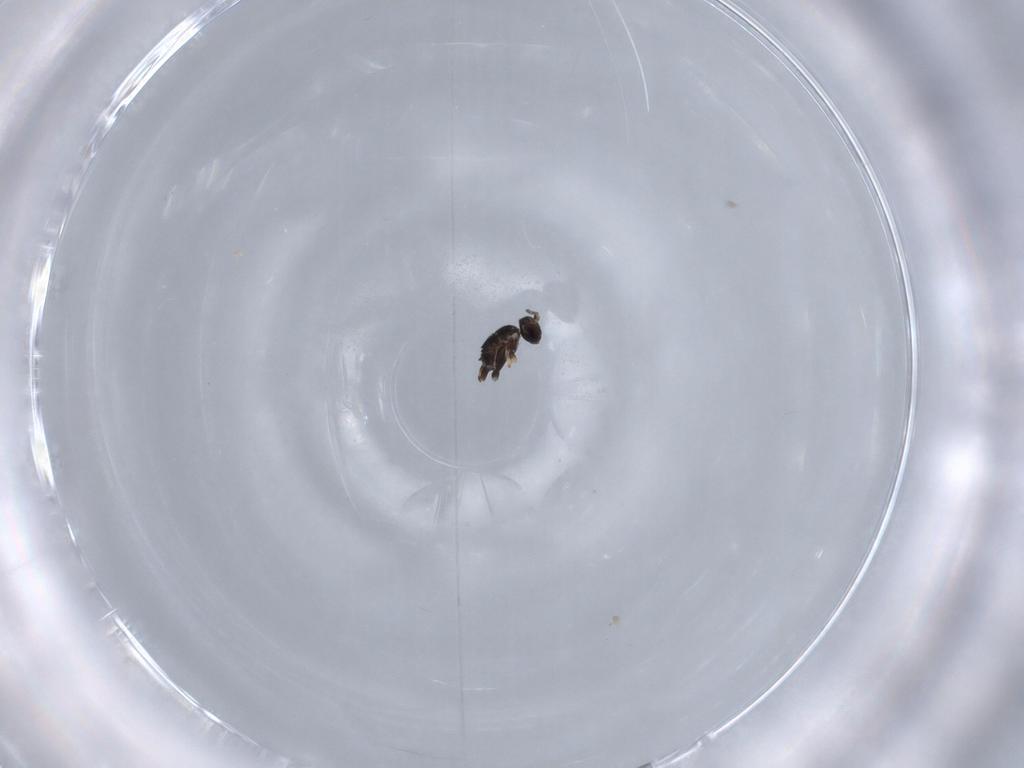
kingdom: Animalia
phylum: Arthropoda
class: Insecta
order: Hymenoptera
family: Mymaridae
